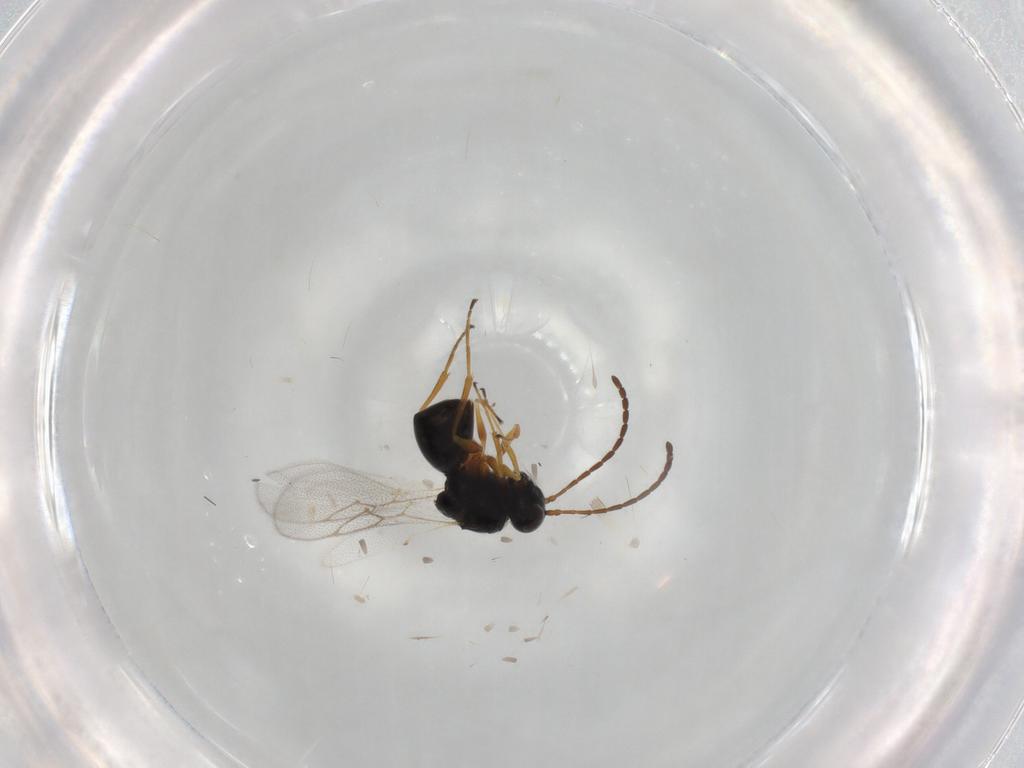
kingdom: Animalia
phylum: Arthropoda
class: Insecta
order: Hymenoptera
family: Figitidae
